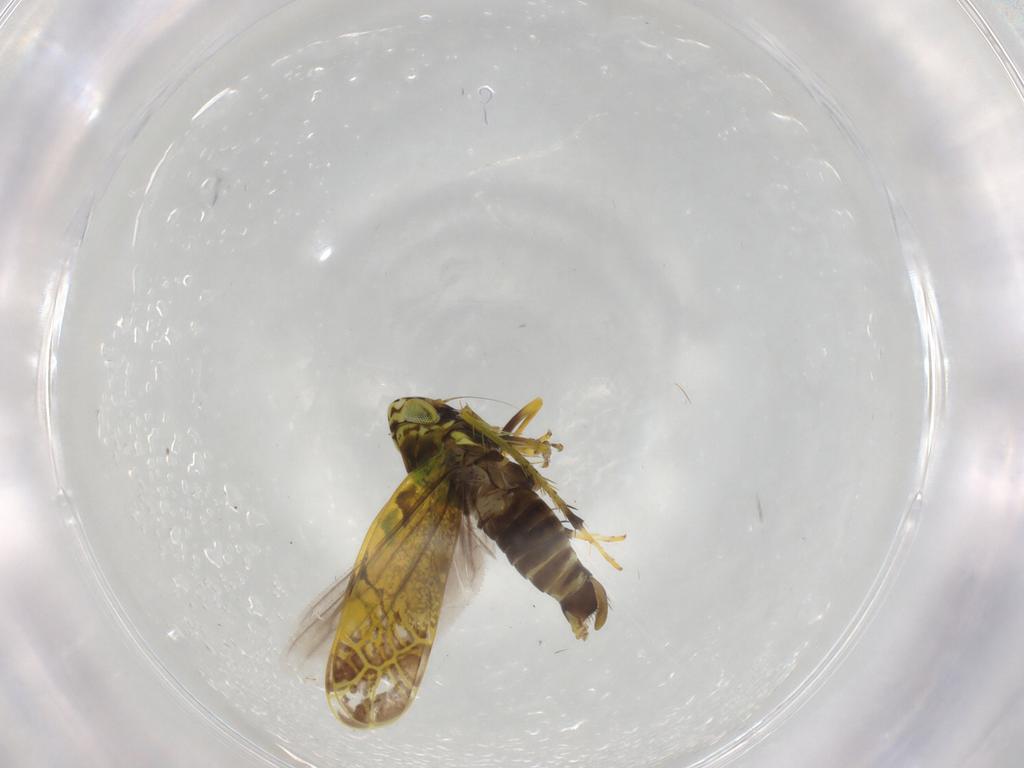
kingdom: Animalia
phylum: Arthropoda
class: Insecta
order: Hemiptera
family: Cicadellidae
